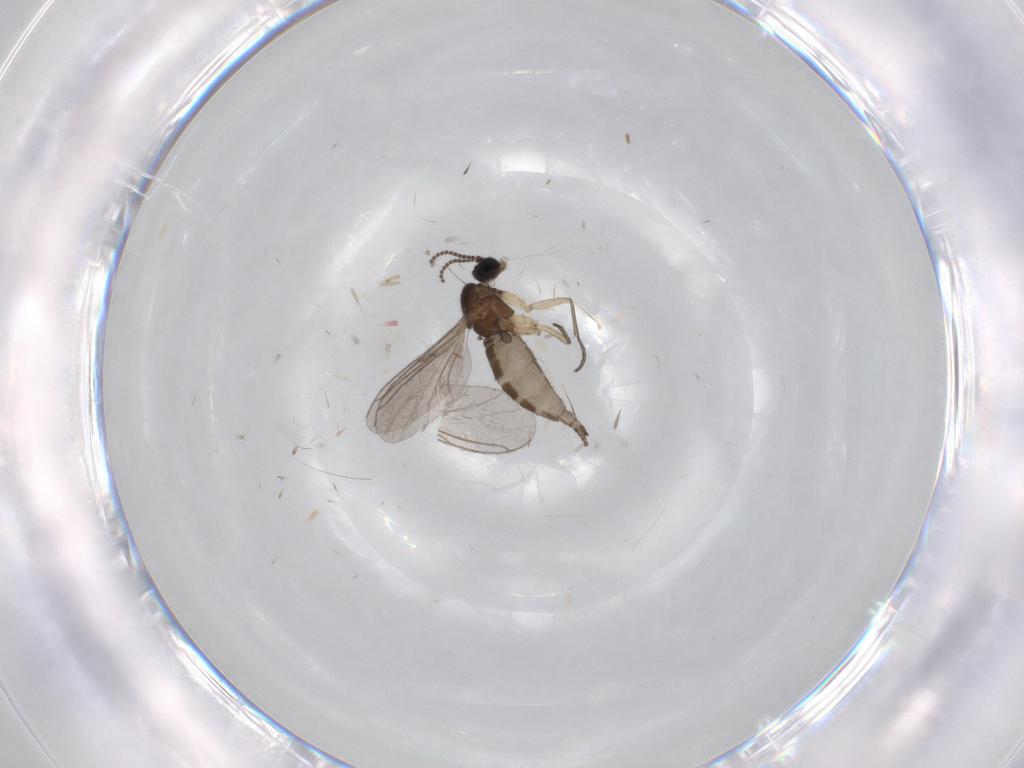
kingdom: Animalia
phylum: Arthropoda
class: Insecta
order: Diptera
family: Sciaridae
